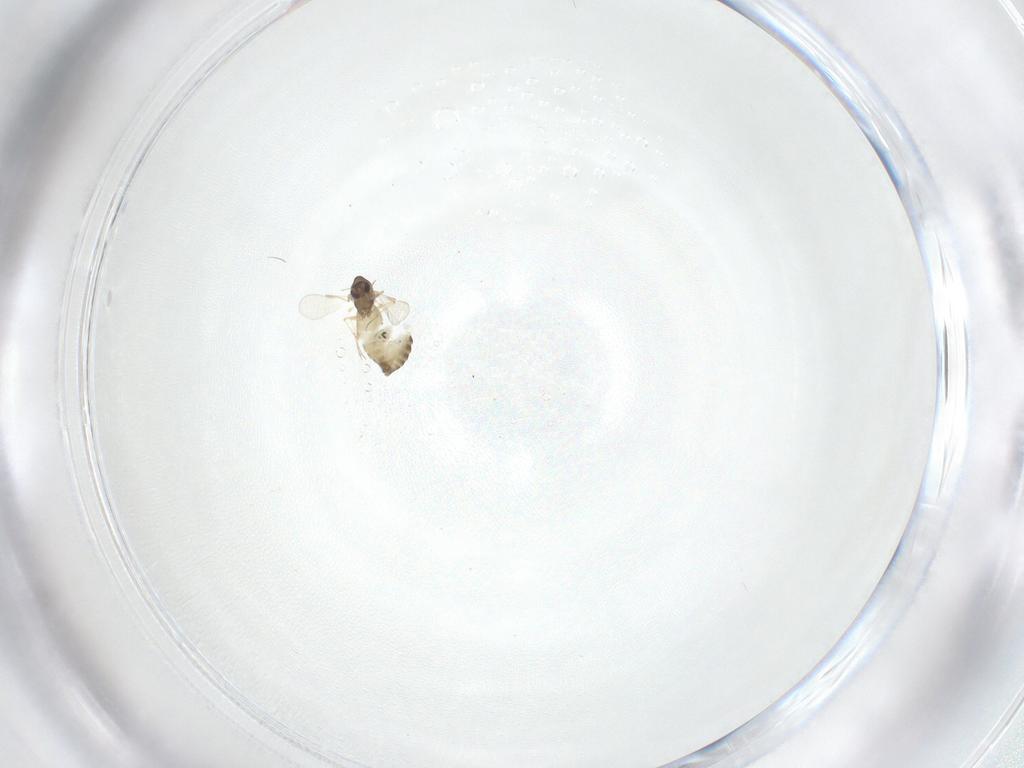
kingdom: Animalia
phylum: Arthropoda
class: Insecta
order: Diptera
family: Chironomidae
